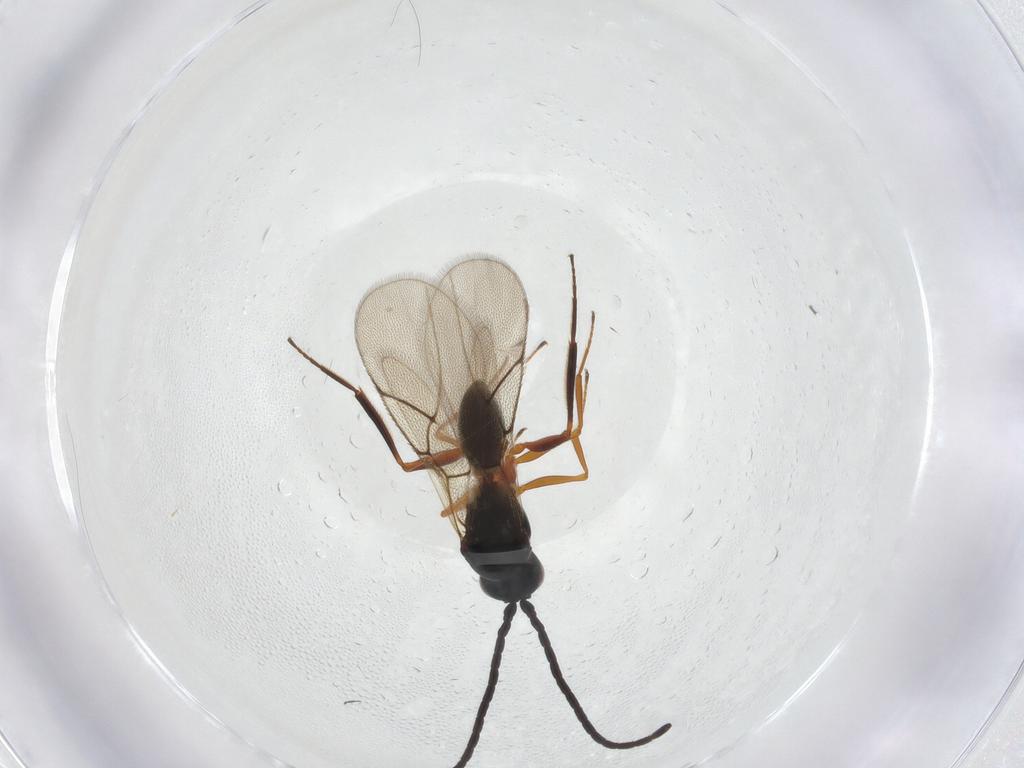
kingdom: Animalia
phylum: Arthropoda
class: Insecta
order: Hymenoptera
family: Figitidae
